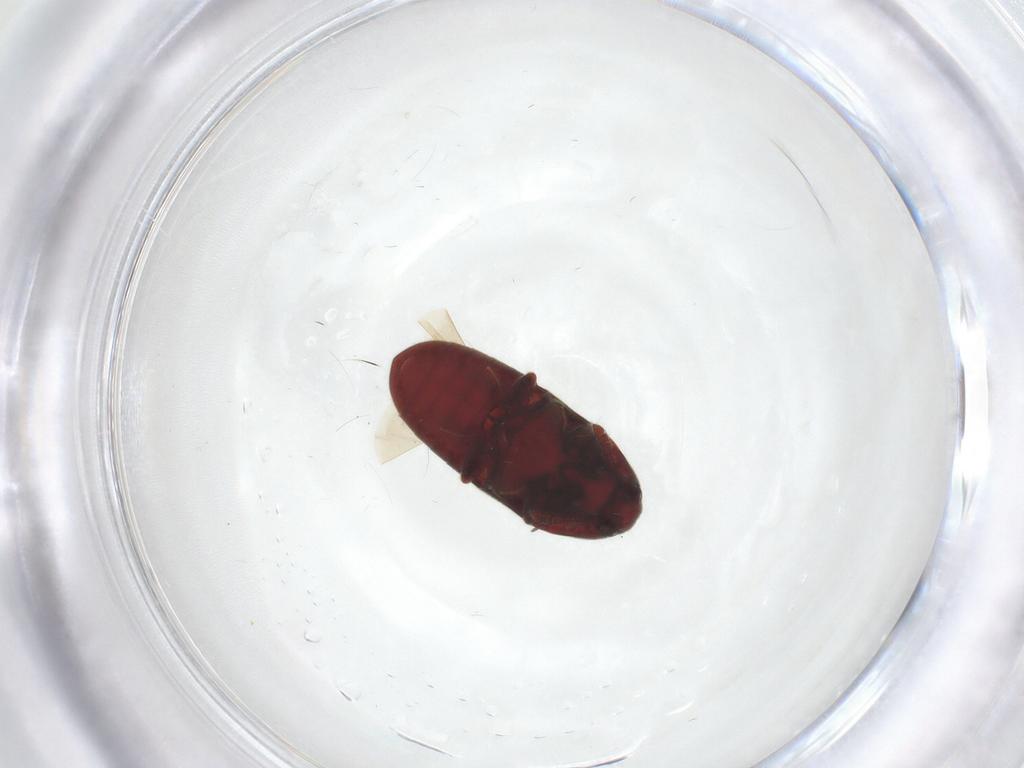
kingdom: Animalia
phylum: Arthropoda
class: Insecta
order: Coleoptera
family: Throscidae
